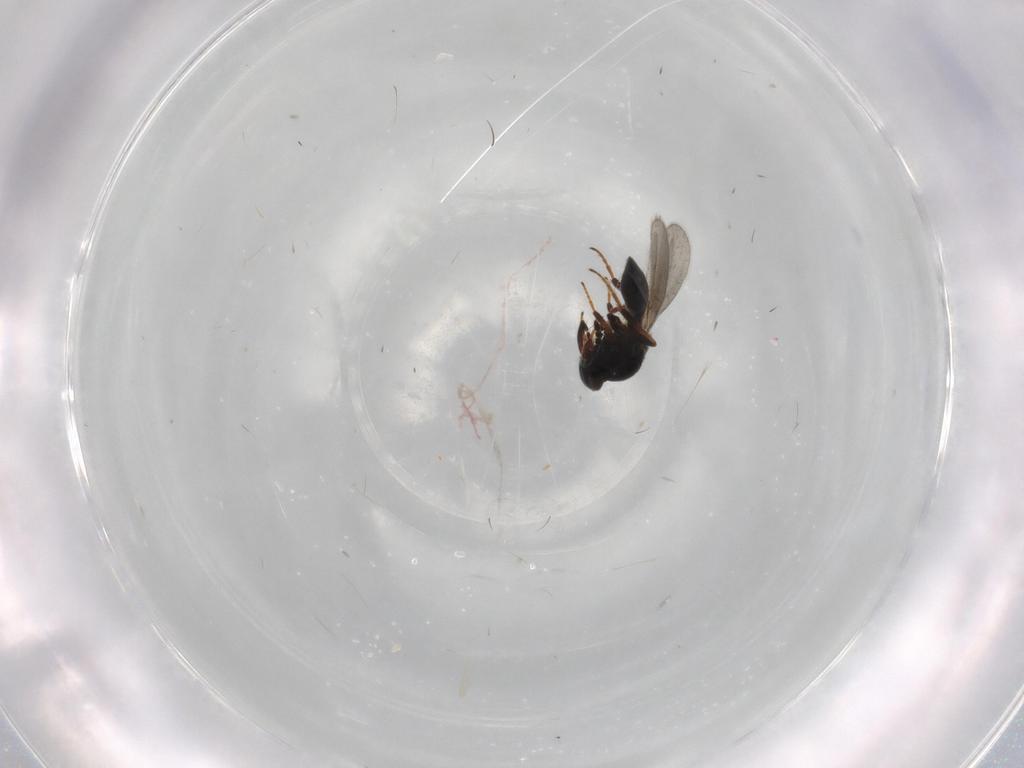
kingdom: Animalia
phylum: Arthropoda
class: Insecta
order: Hymenoptera
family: Platygastridae
